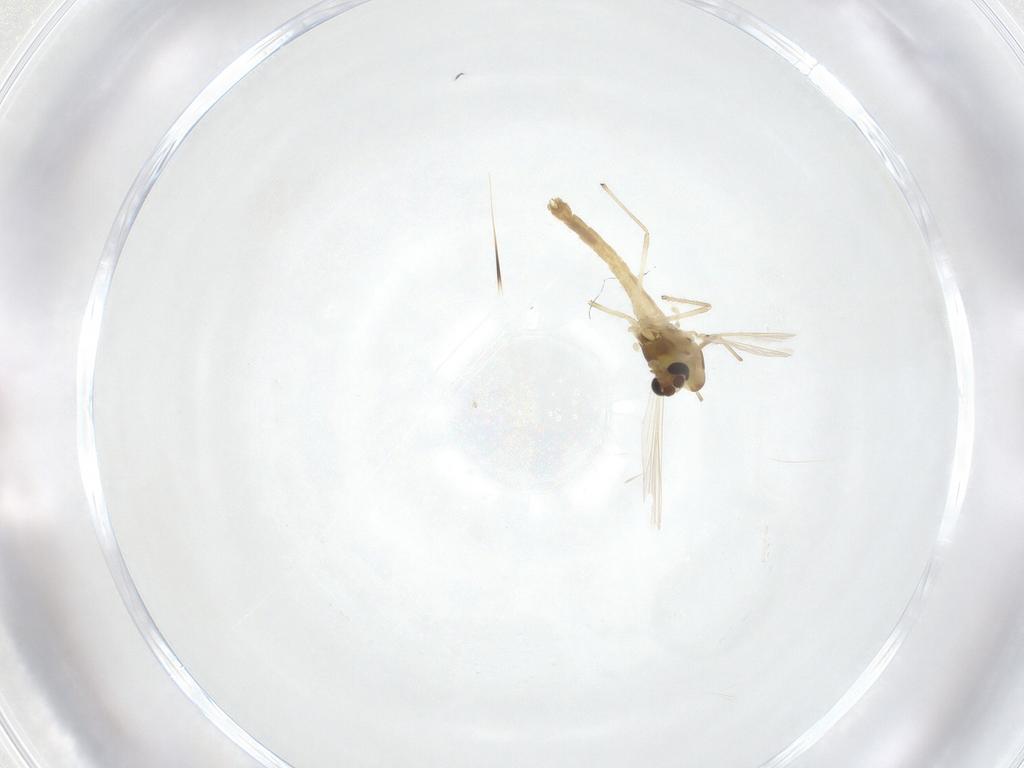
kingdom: Animalia
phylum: Arthropoda
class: Insecta
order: Diptera
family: Chironomidae
